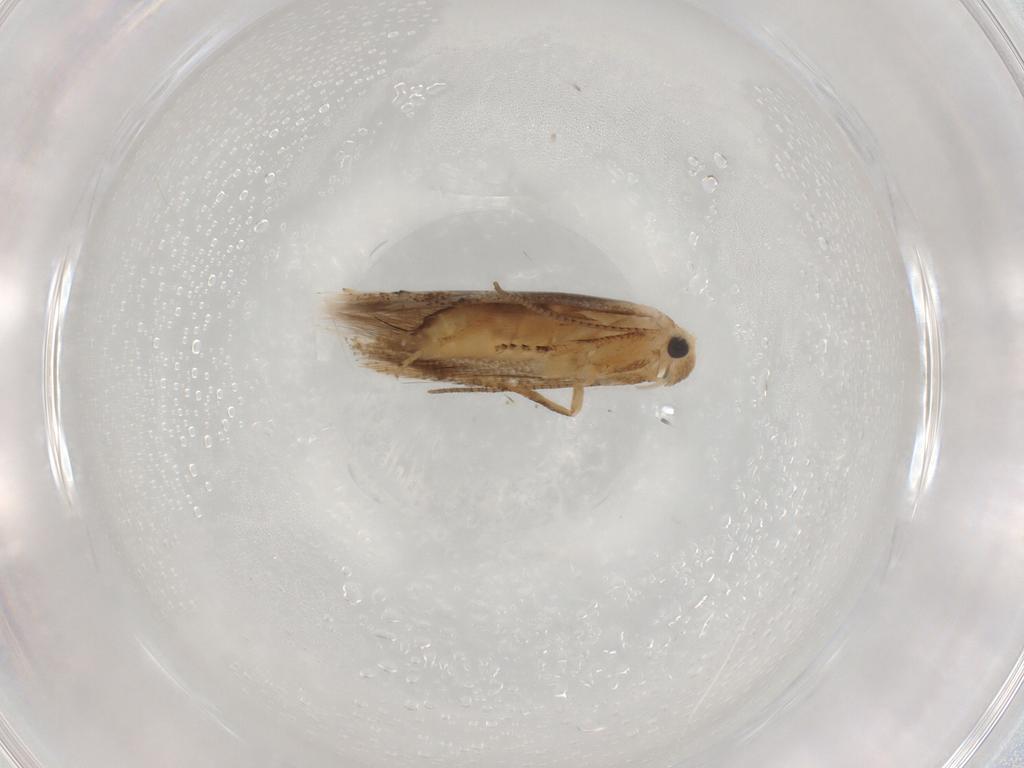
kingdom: Animalia
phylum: Arthropoda
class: Insecta
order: Lepidoptera
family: Bucculatricidae
